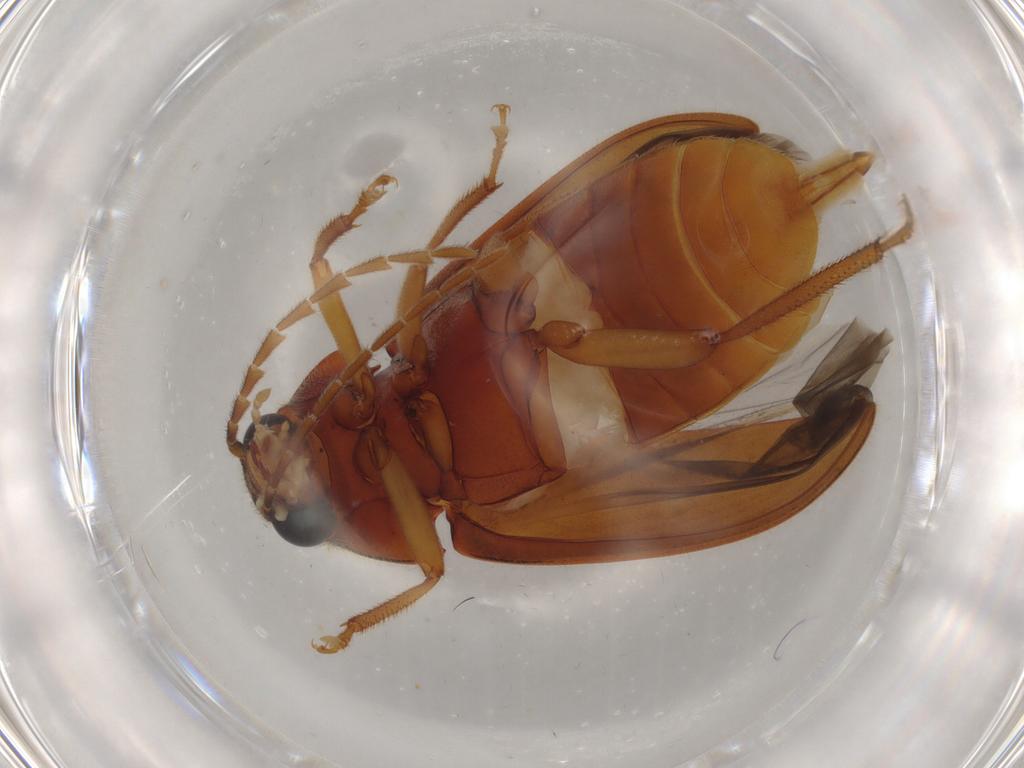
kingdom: Animalia
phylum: Arthropoda
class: Insecta
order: Coleoptera
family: Ptilodactylidae
